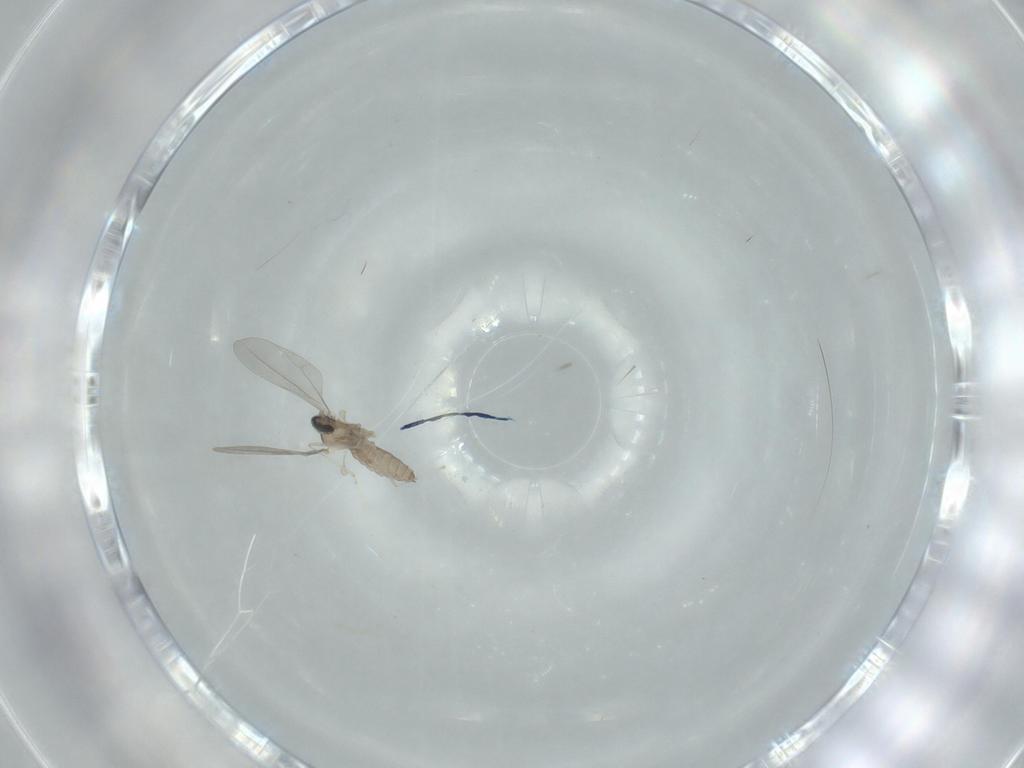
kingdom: Animalia
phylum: Arthropoda
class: Insecta
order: Diptera
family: Cecidomyiidae
